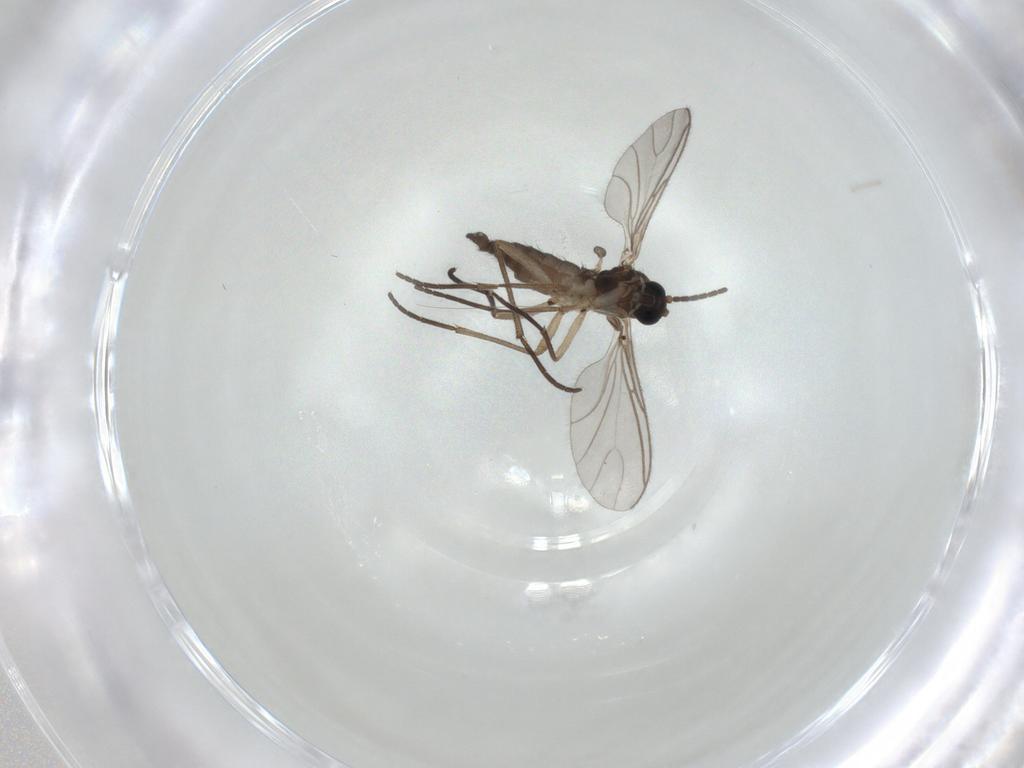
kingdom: Animalia
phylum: Arthropoda
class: Insecta
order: Diptera
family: Sciaridae
